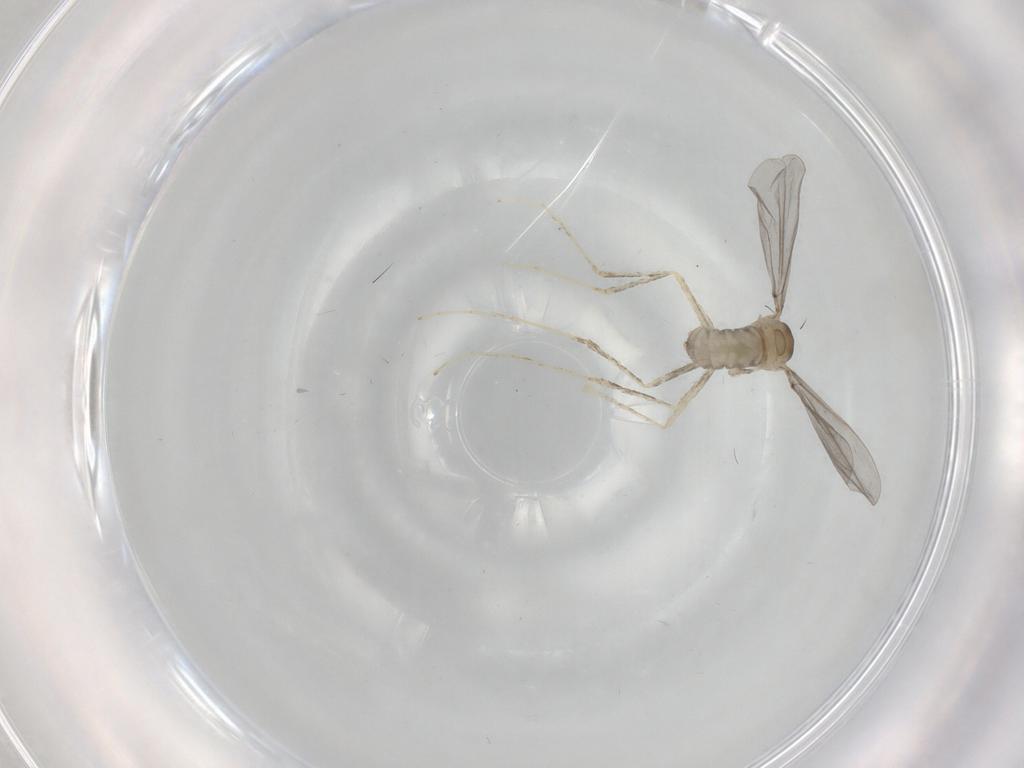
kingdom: Animalia
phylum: Arthropoda
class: Insecta
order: Diptera
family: Cecidomyiidae
